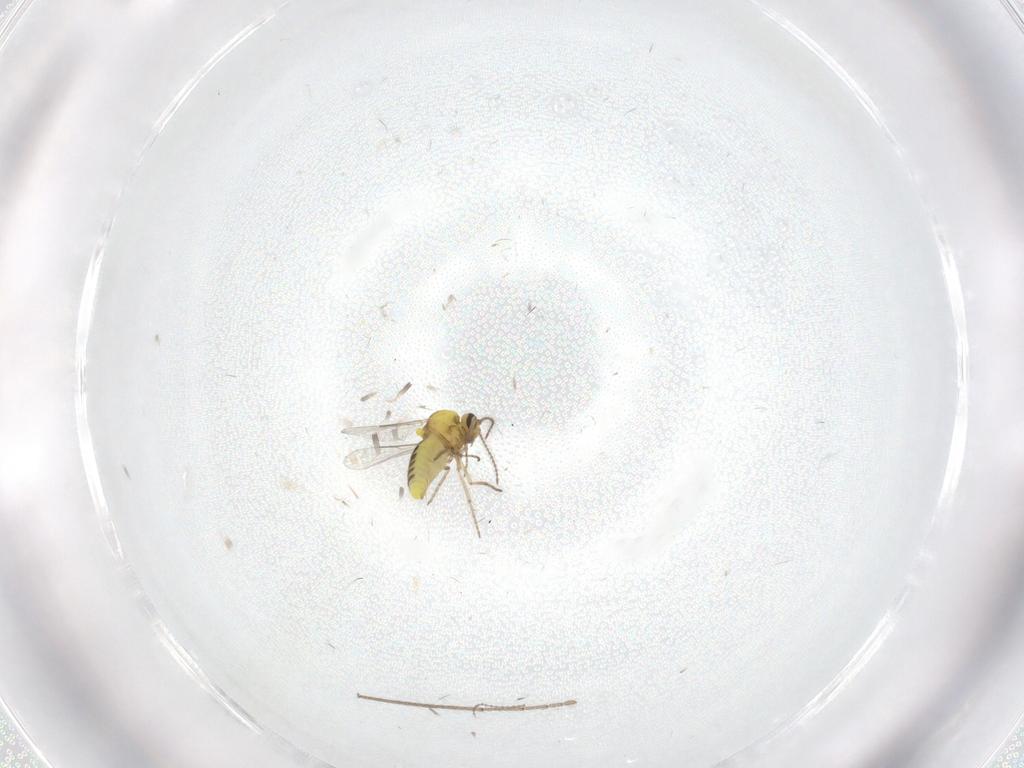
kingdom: Animalia
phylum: Arthropoda
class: Insecta
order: Diptera
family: Limoniidae
